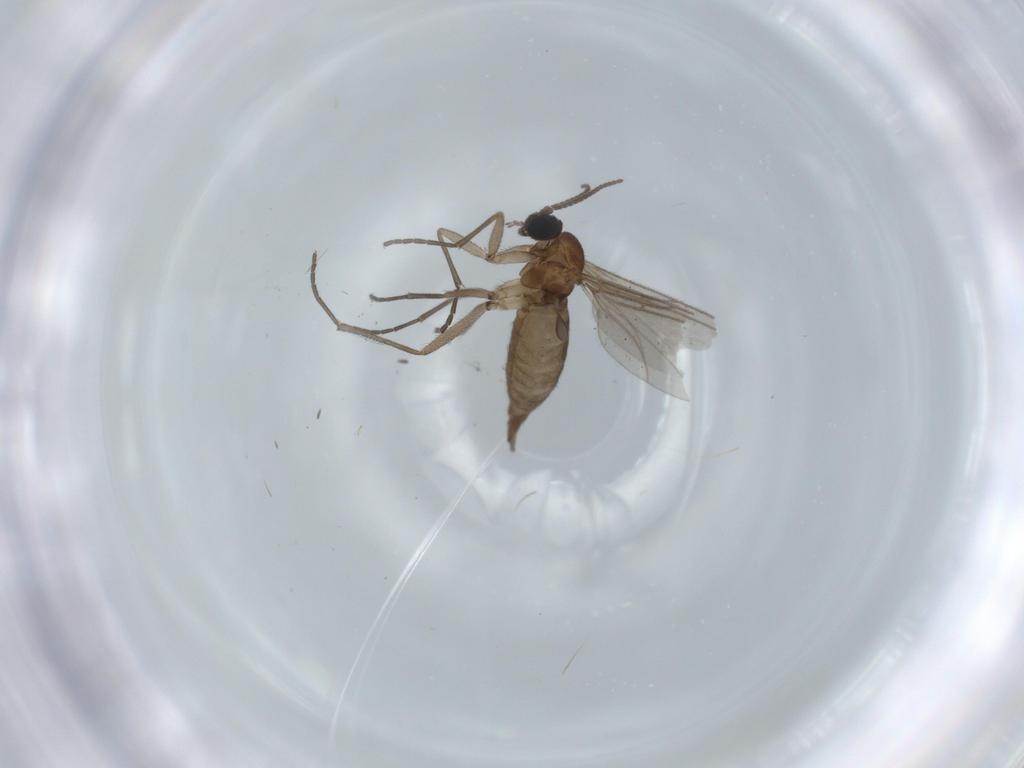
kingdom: Animalia
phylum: Arthropoda
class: Insecta
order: Diptera
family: Sciaridae
